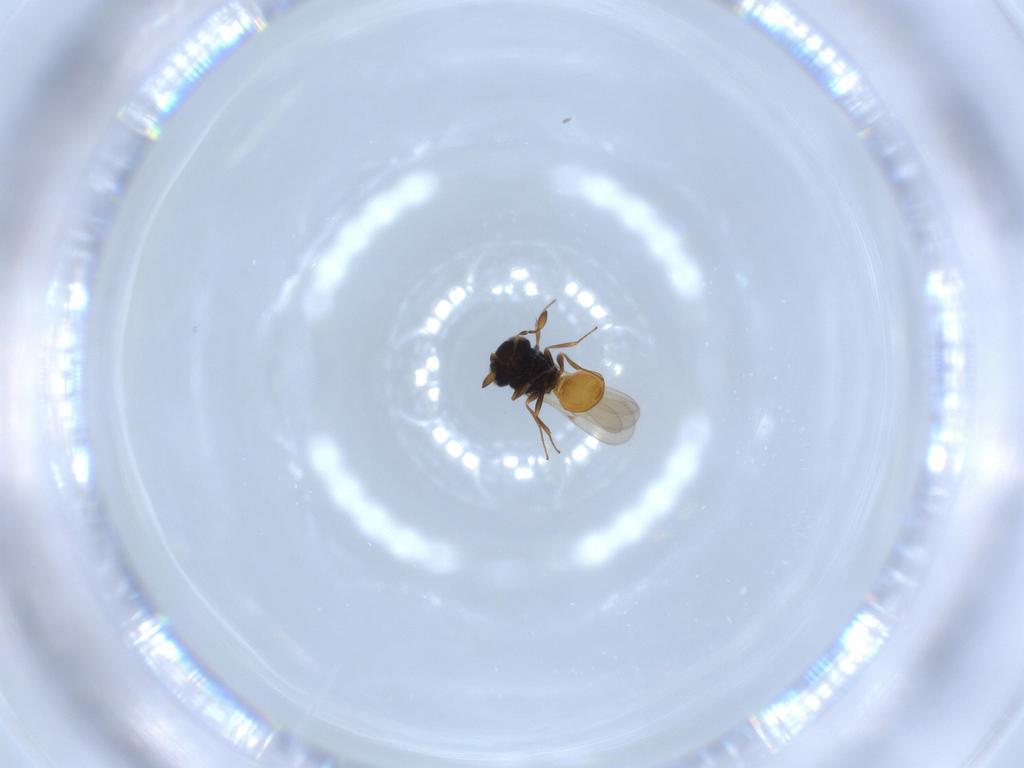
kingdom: Animalia
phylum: Arthropoda
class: Insecta
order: Hymenoptera
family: Scelionidae
